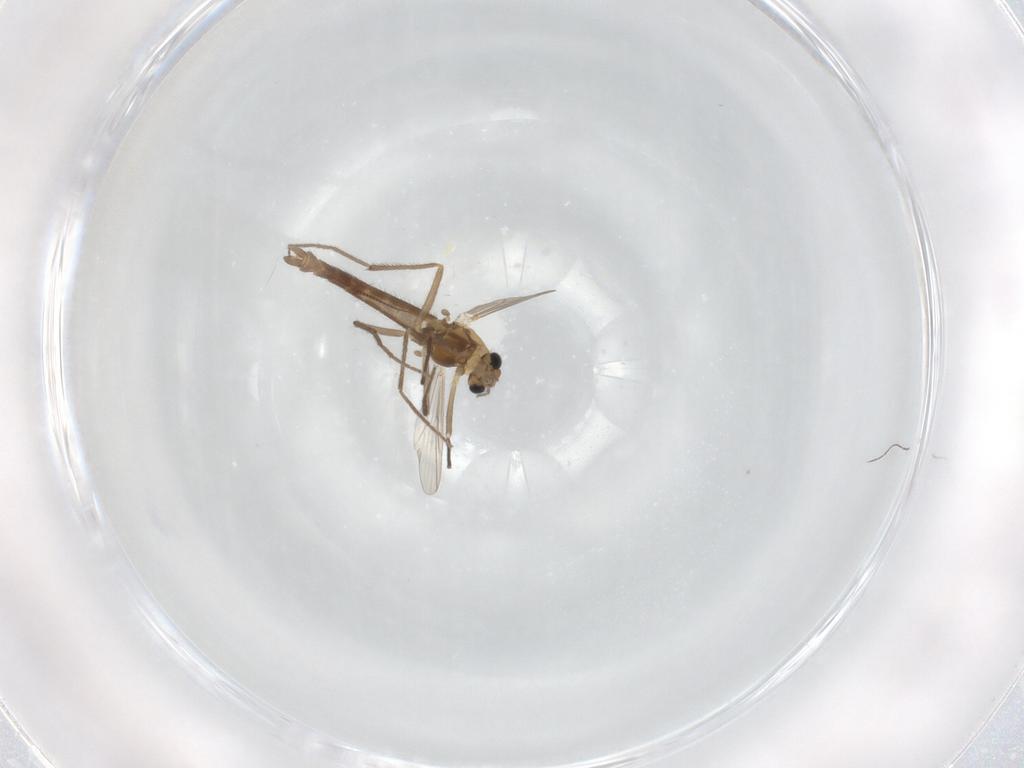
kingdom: Animalia
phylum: Arthropoda
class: Insecta
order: Diptera
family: Chironomidae
